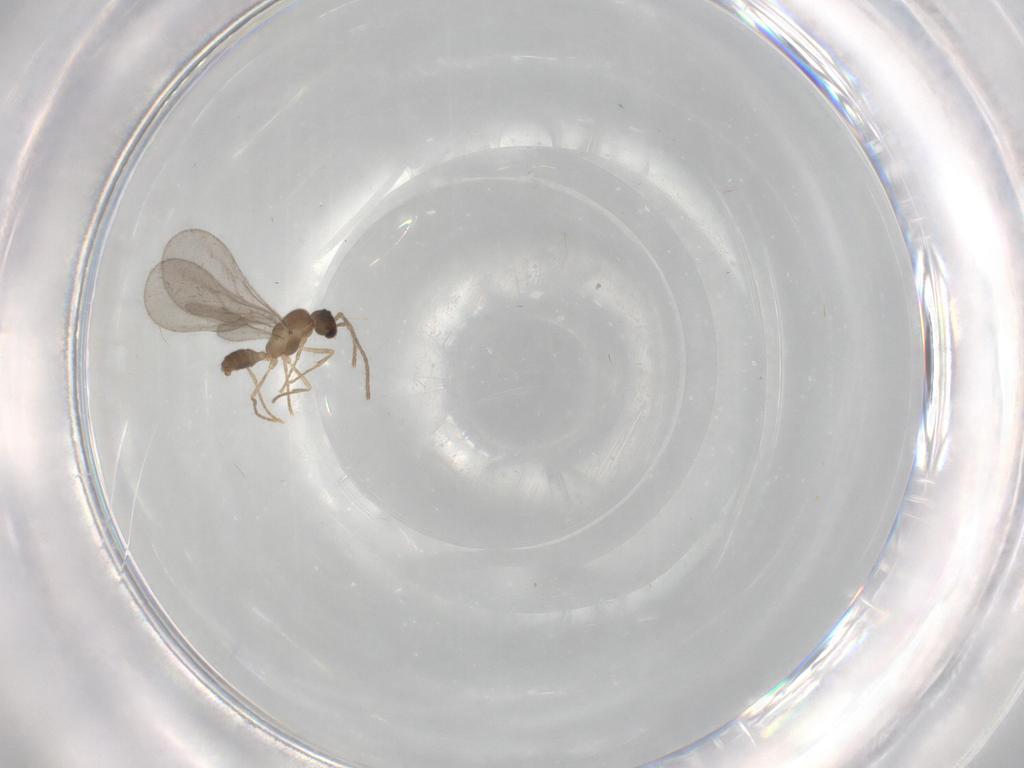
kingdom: Animalia
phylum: Arthropoda
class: Insecta
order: Hymenoptera
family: Formicidae
